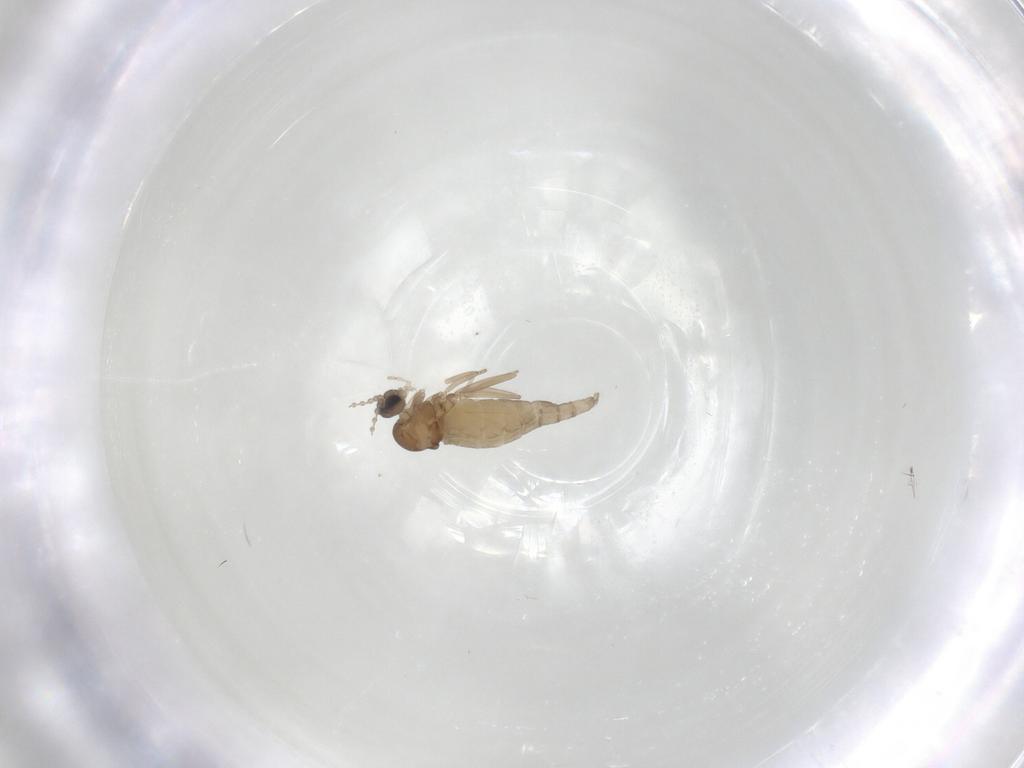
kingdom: Animalia
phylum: Arthropoda
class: Insecta
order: Diptera
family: Cecidomyiidae
